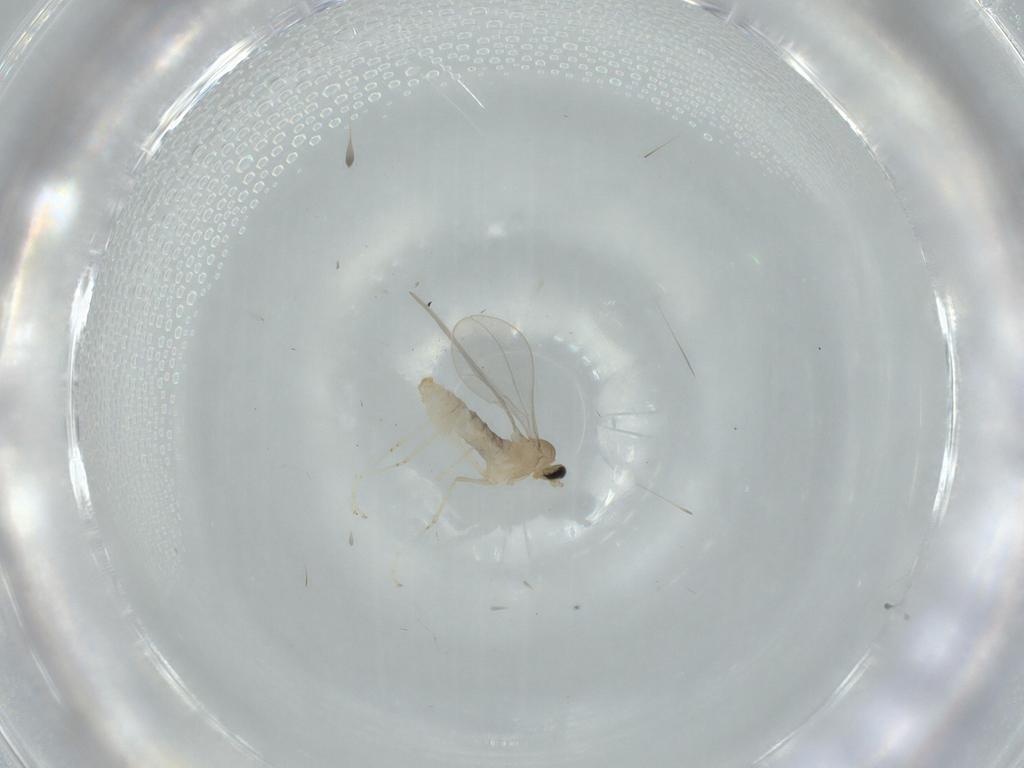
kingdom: Animalia
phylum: Arthropoda
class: Insecta
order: Diptera
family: Cecidomyiidae
